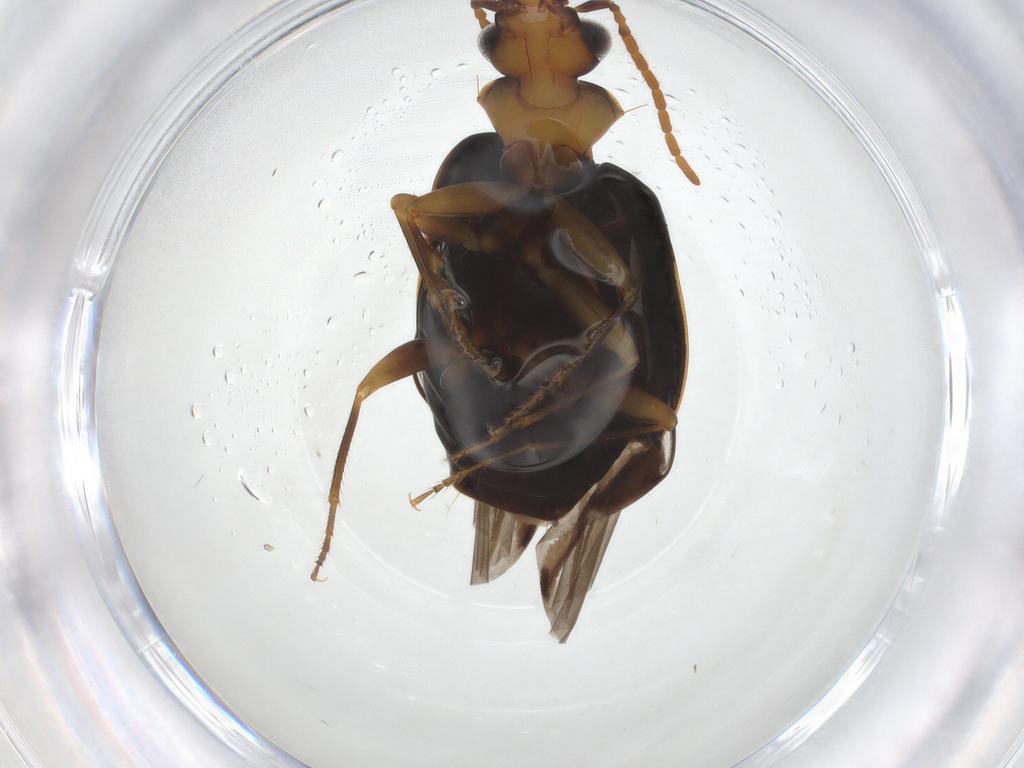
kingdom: Animalia
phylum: Arthropoda
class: Insecta
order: Coleoptera
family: Carabidae
